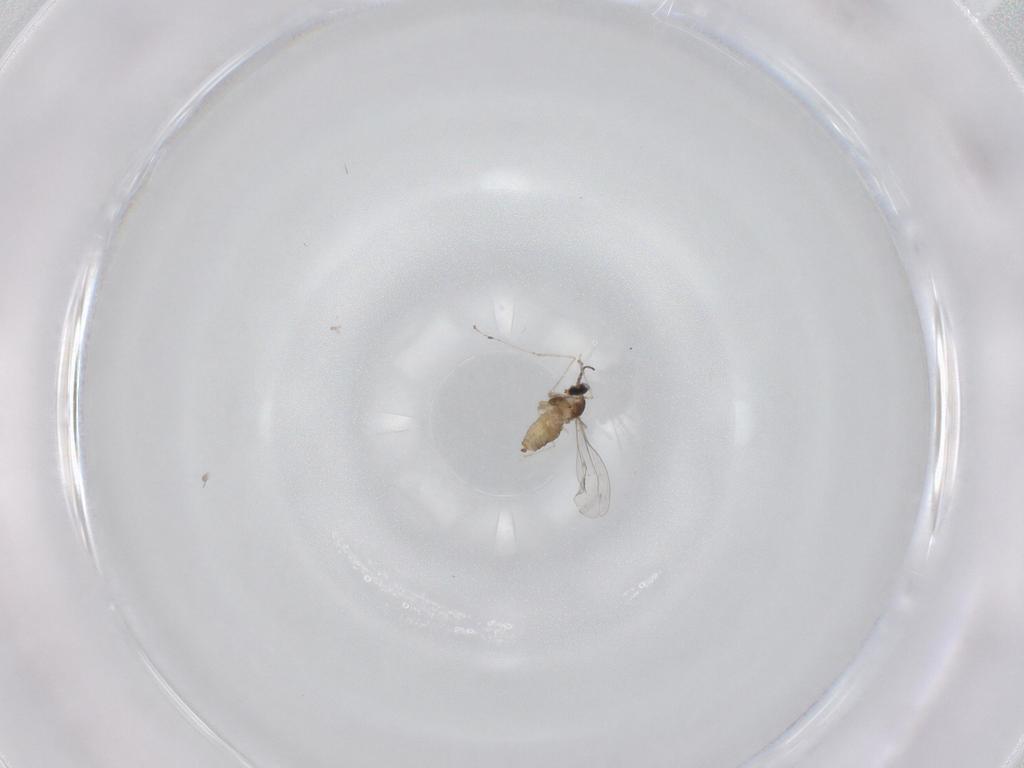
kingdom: Animalia
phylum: Arthropoda
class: Insecta
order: Diptera
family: Cecidomyiidae
